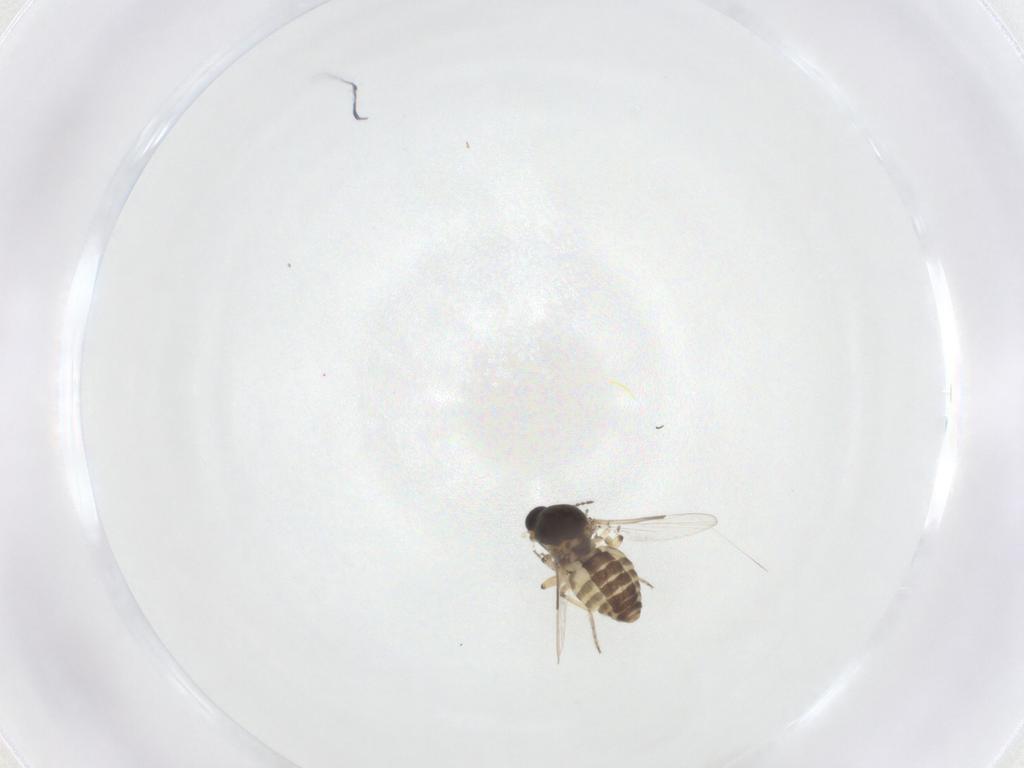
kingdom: Animalia
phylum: Arthropoda
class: Insecta
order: Diptera
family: Ceratopogonidae
